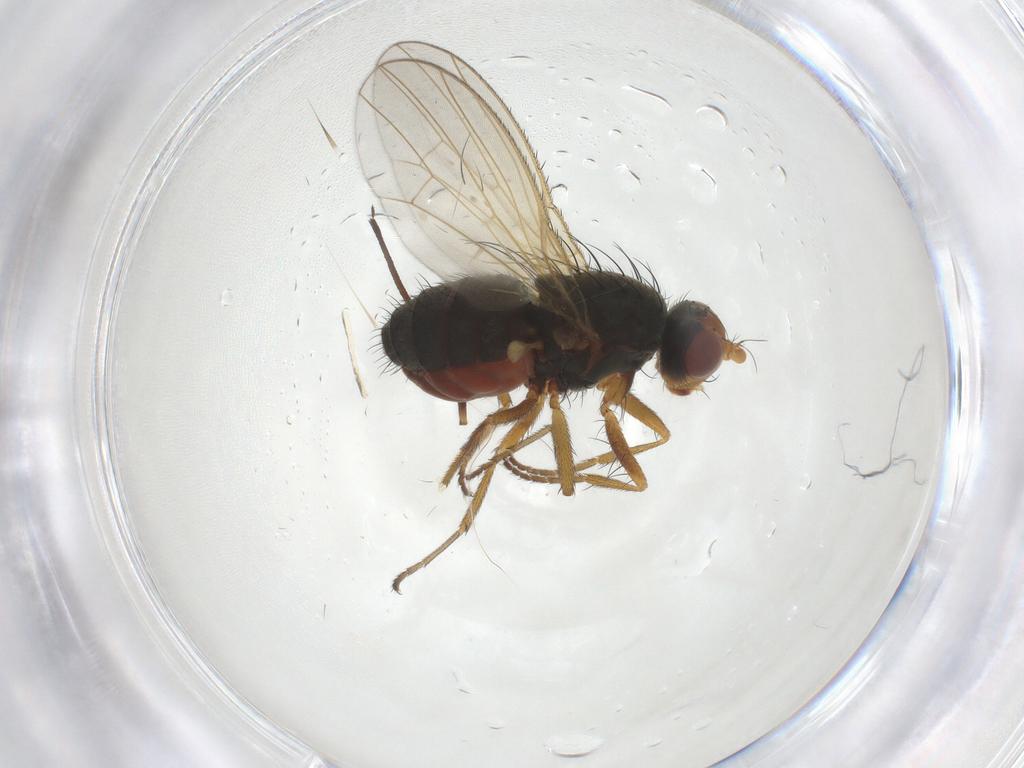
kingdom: Animalia
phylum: Arthropoda
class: Insecta
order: Diptera
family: Heleomyzidae
